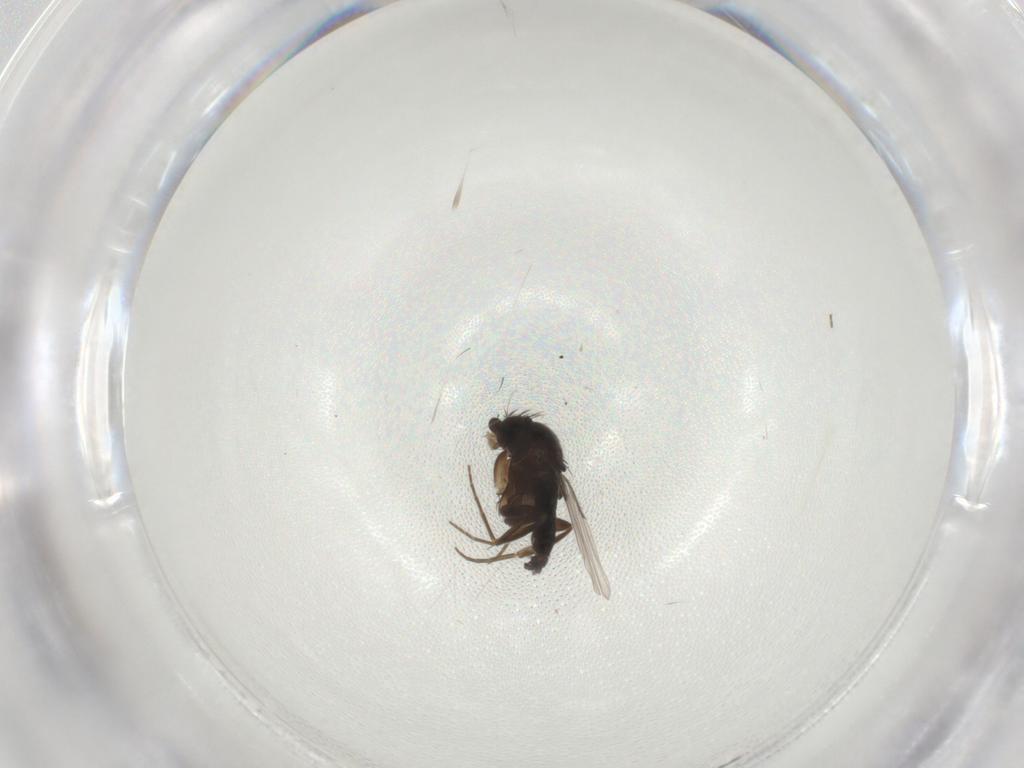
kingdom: Animalia
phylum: Arthropoda
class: Insecta
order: Diptera
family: Phoridae
